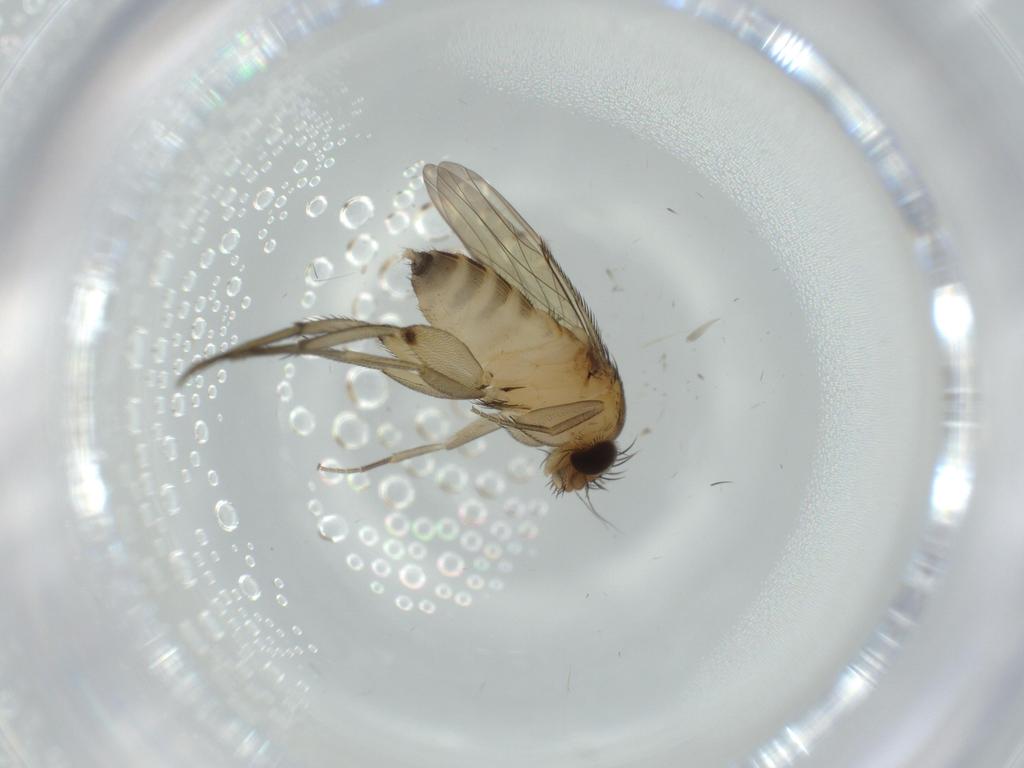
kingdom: Animalia
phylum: Arthropoda
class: Insecta
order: Diptera
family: Phoridae
